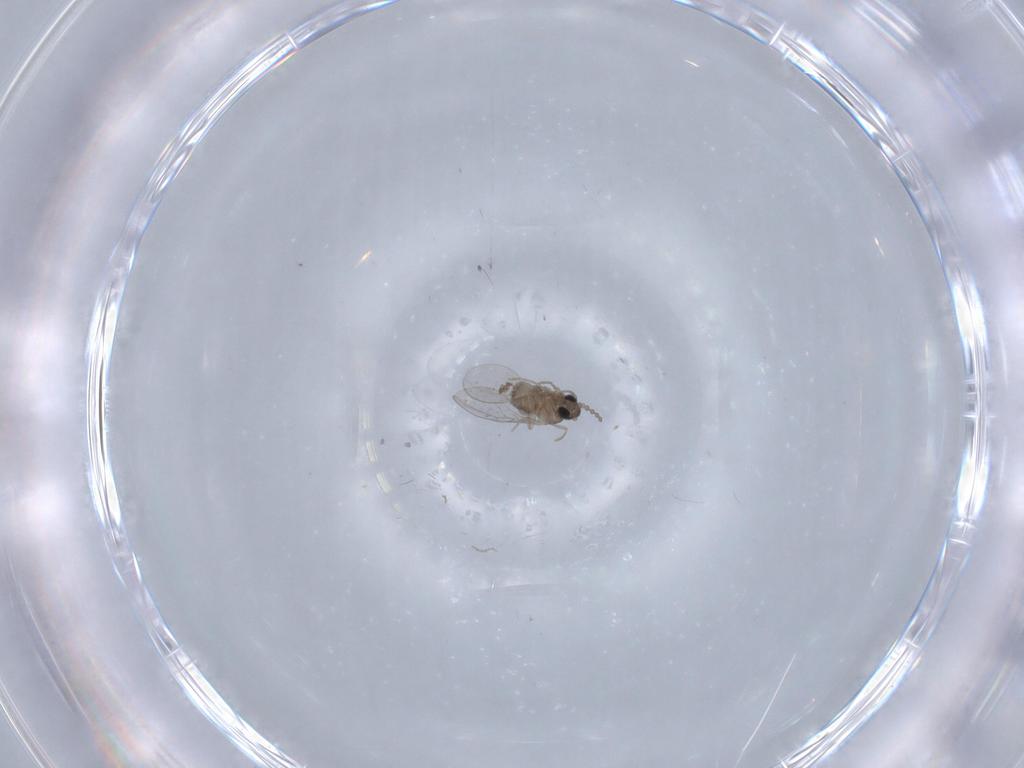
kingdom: Animalia
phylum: Arthropoda
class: Insecta
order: Diptera
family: Cecidomyiidae
